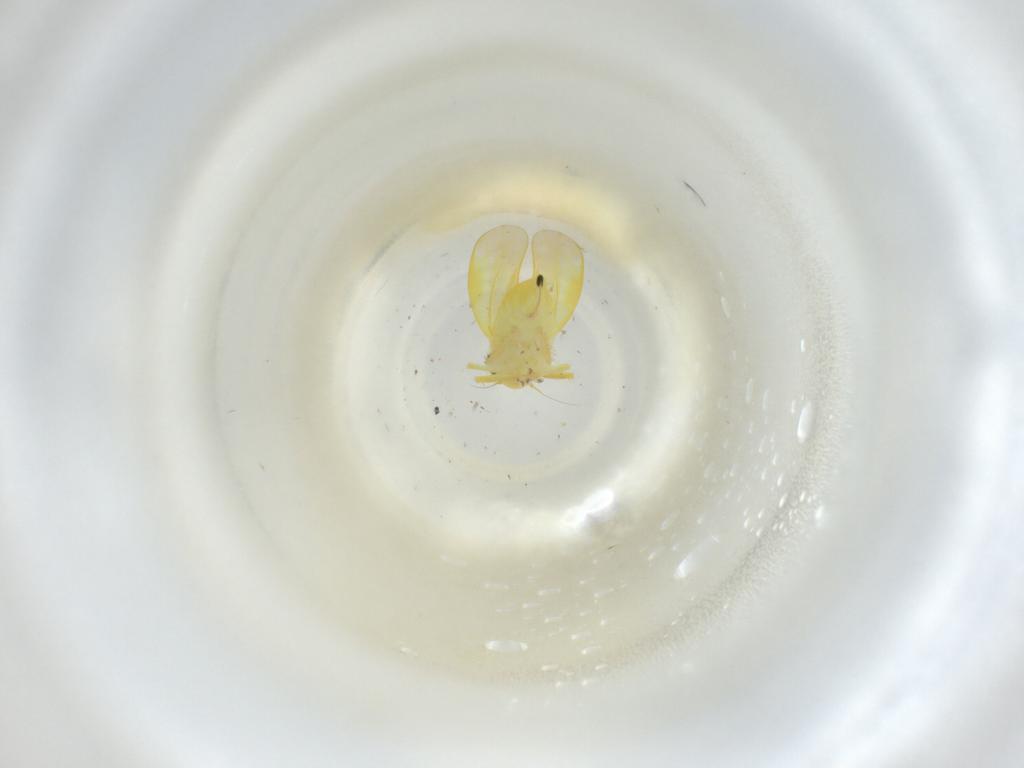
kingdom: Animalia
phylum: Arthropoda
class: Insecta
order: Hemiptera
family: Cicadellidae
